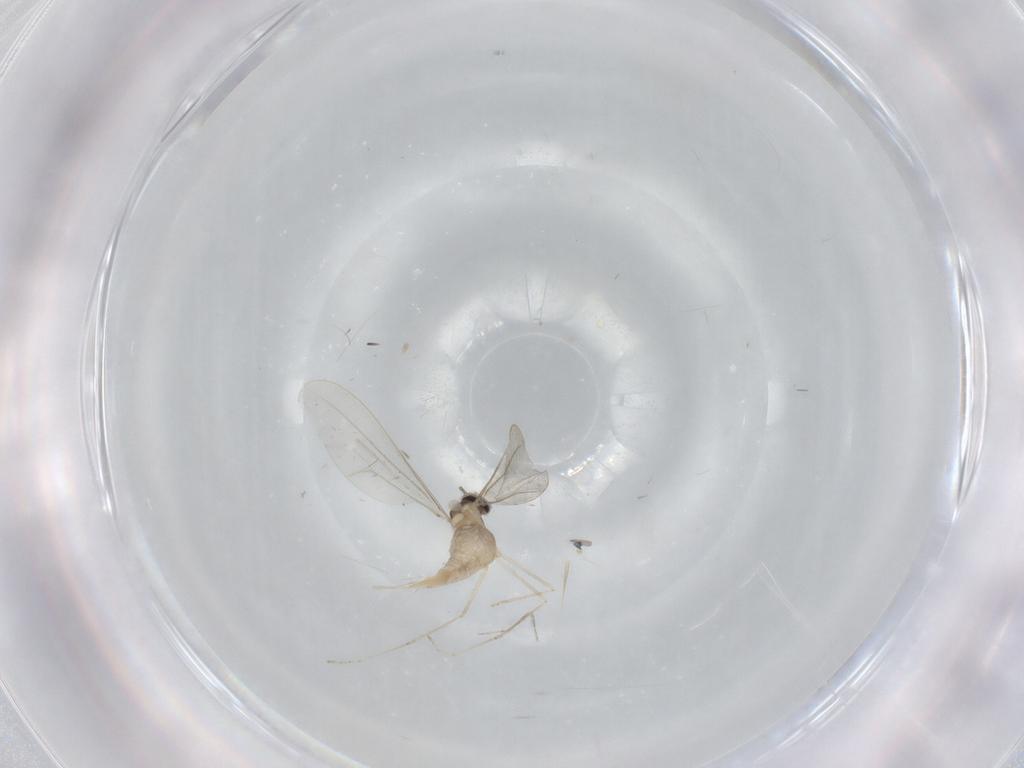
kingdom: Animalia
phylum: Arthropoda
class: Insecta
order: Diptera
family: Cecidomyiidae
